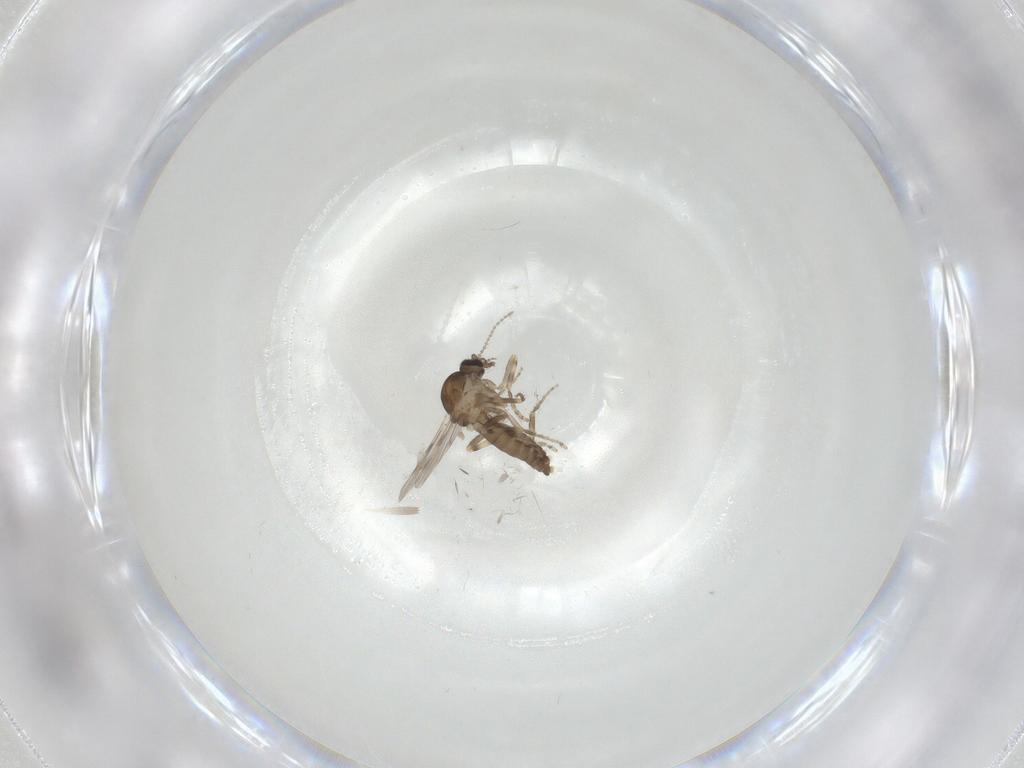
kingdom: Animalia
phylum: Arthropoda
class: Insecta
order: Diptera
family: Ceratopogonidae
